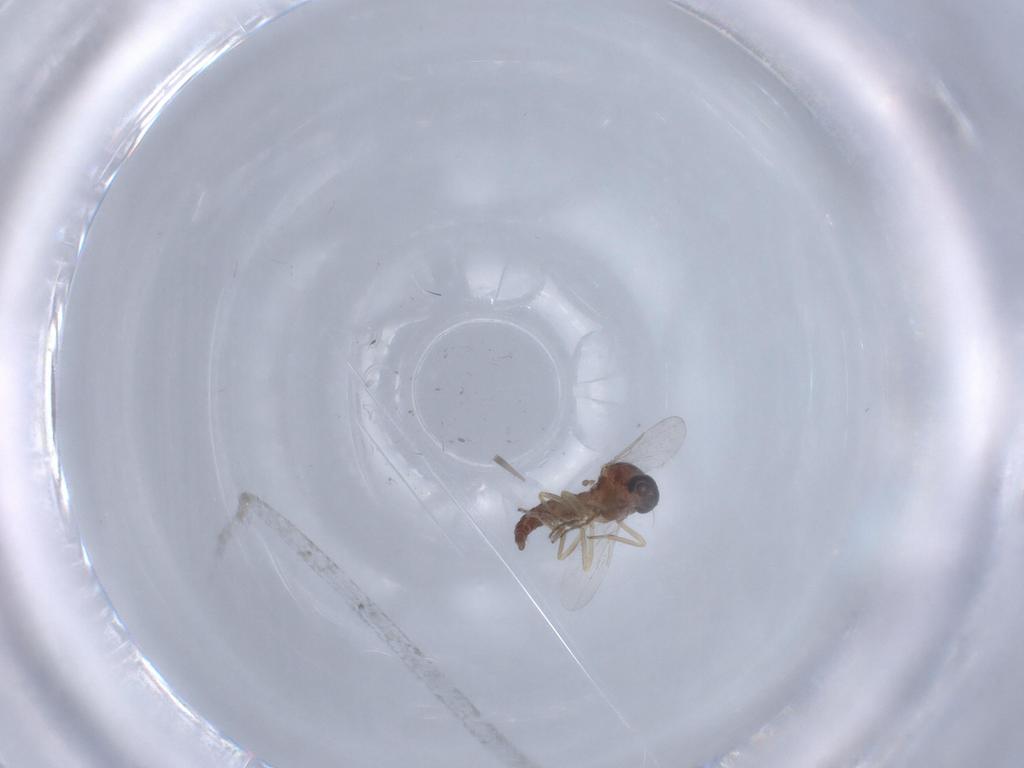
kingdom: Animalia
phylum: Arthropoda
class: Insecta
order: Diptera
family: Ceratopogonidae
